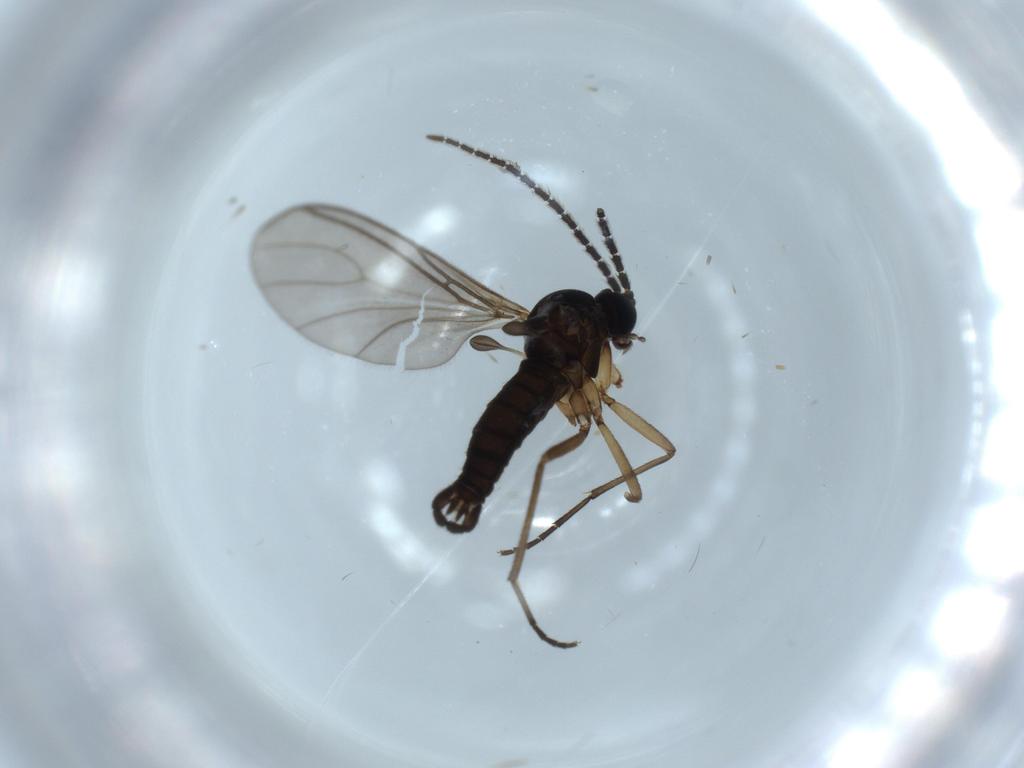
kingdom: Animalia
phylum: Arthropoda
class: Insecta
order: Diptera
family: Sciaridae
